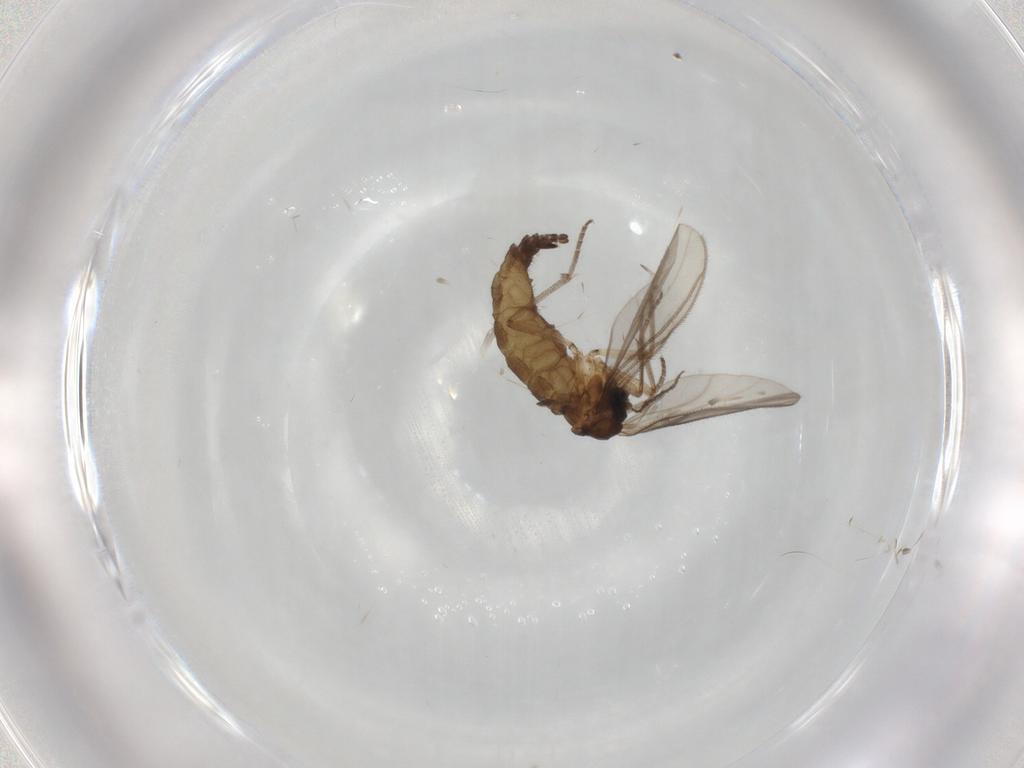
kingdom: Animalia
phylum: Arthropoda
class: Insecta
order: Diptera
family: Sciaridae
